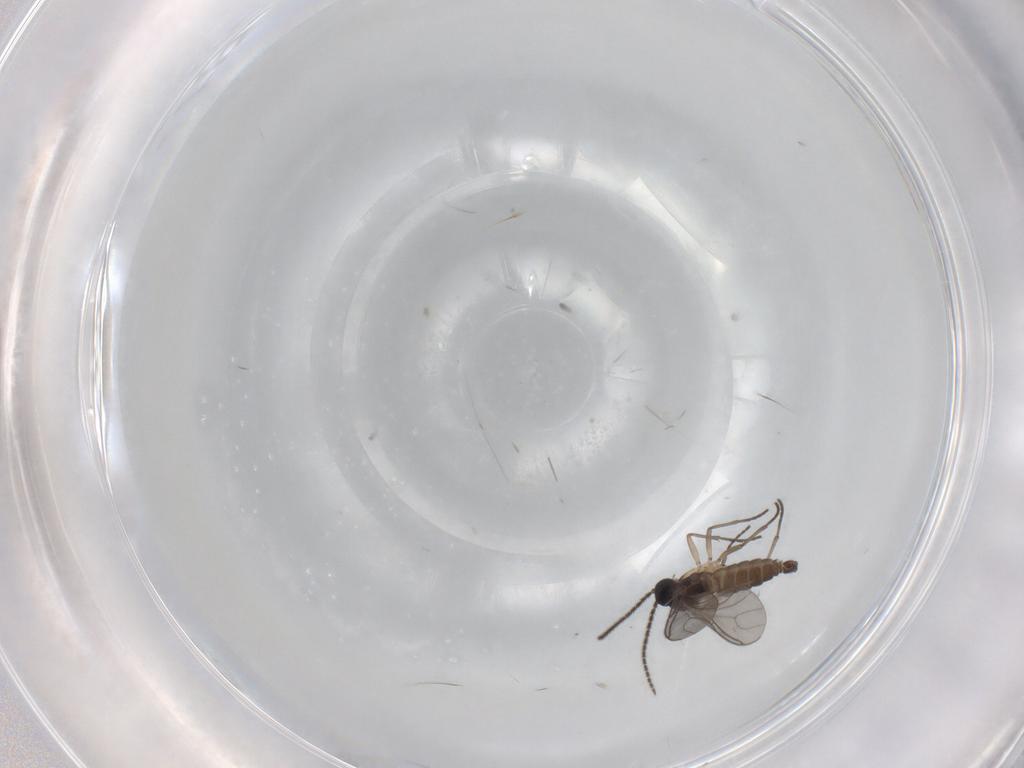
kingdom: Animalia
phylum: Arthropoda
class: Insecta
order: Diptera
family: Sciaridae
